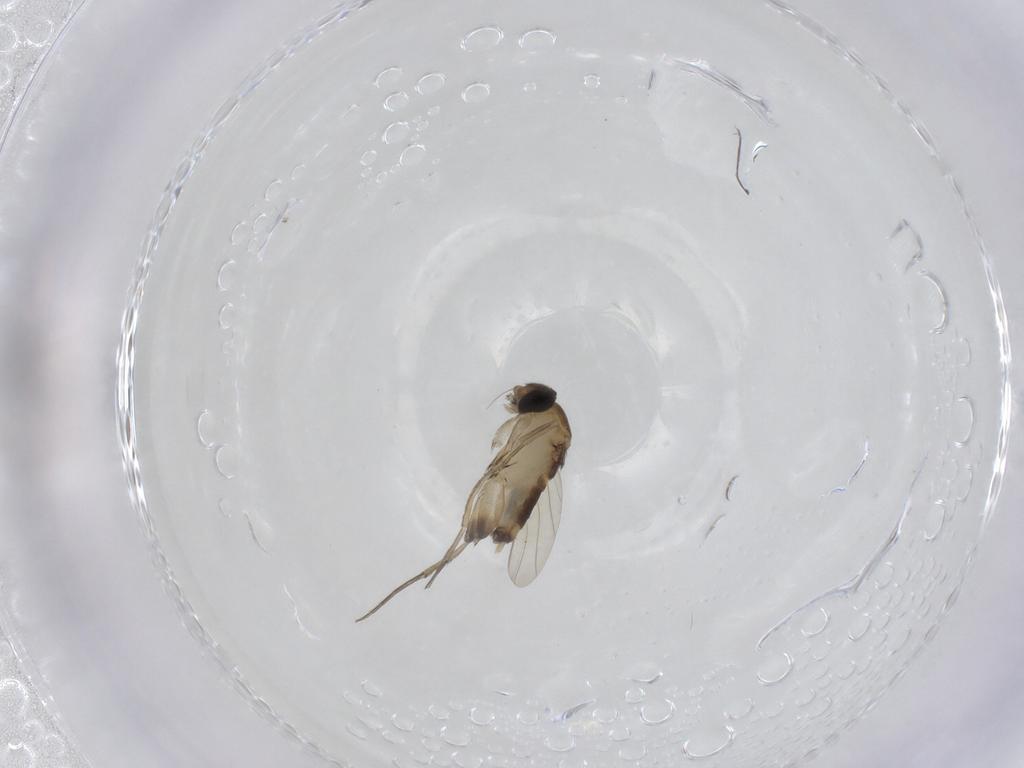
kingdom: Animalia
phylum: Arthropoda
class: Insecta
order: Diptera
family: Phoridae
